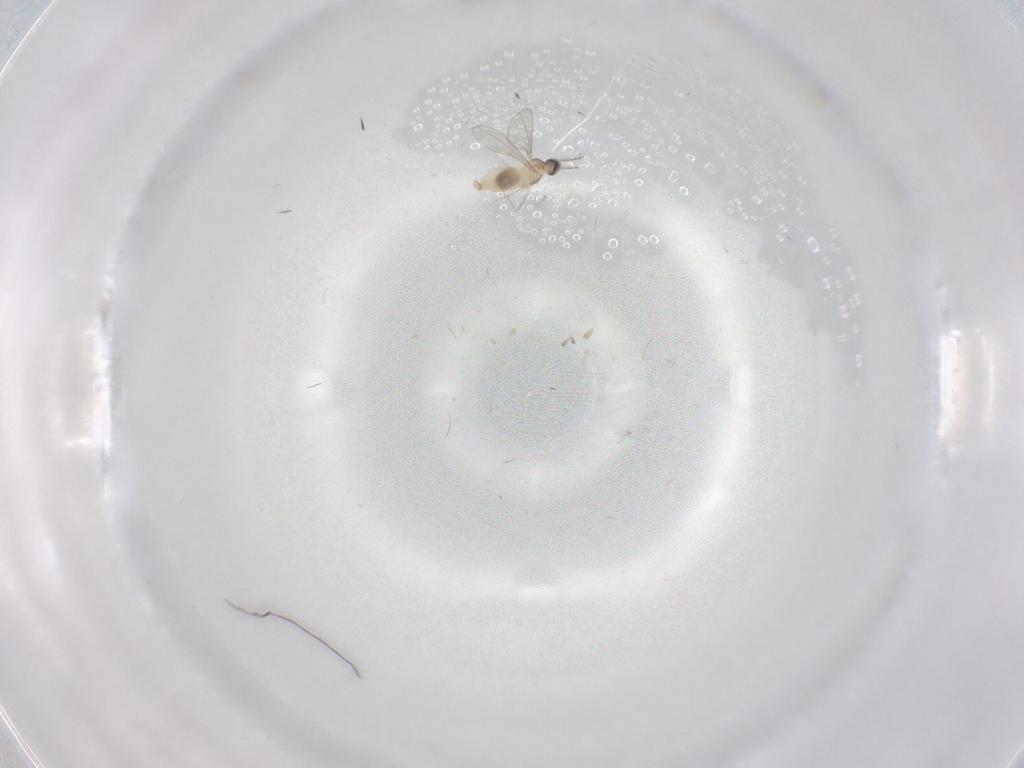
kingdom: Animalia
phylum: Arthropoda
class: Insecta
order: Diptera
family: Cecidomyiidae
